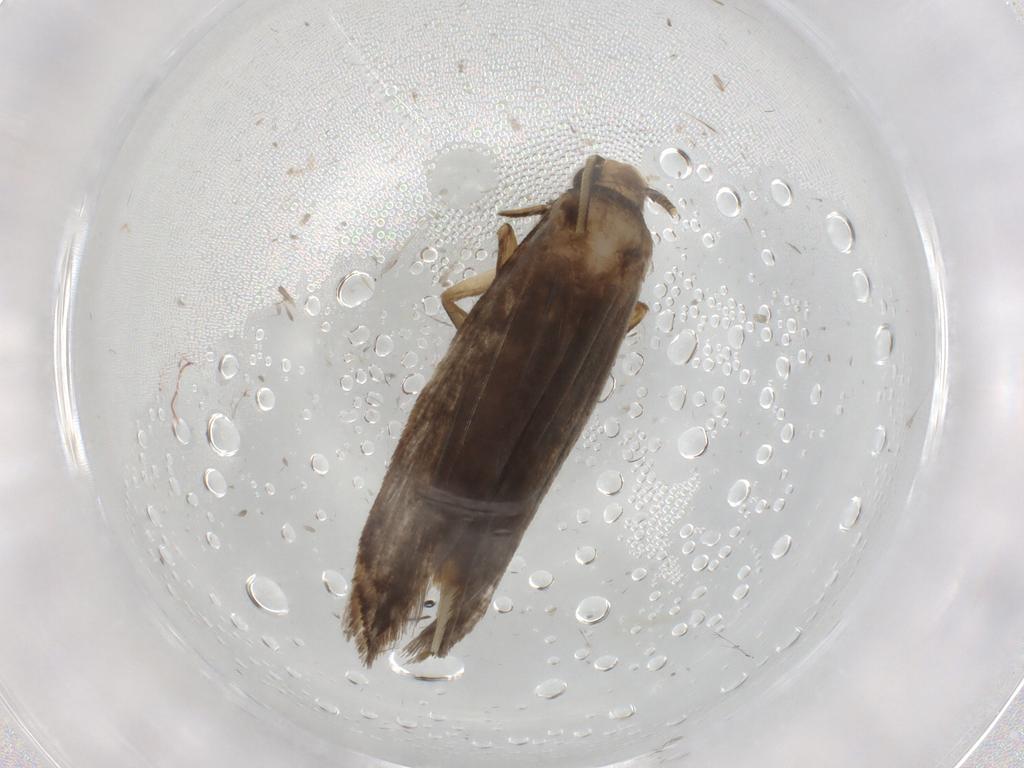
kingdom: Animalia
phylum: Arthropoda
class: Insecta
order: Lepidoptera
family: Tineidae
